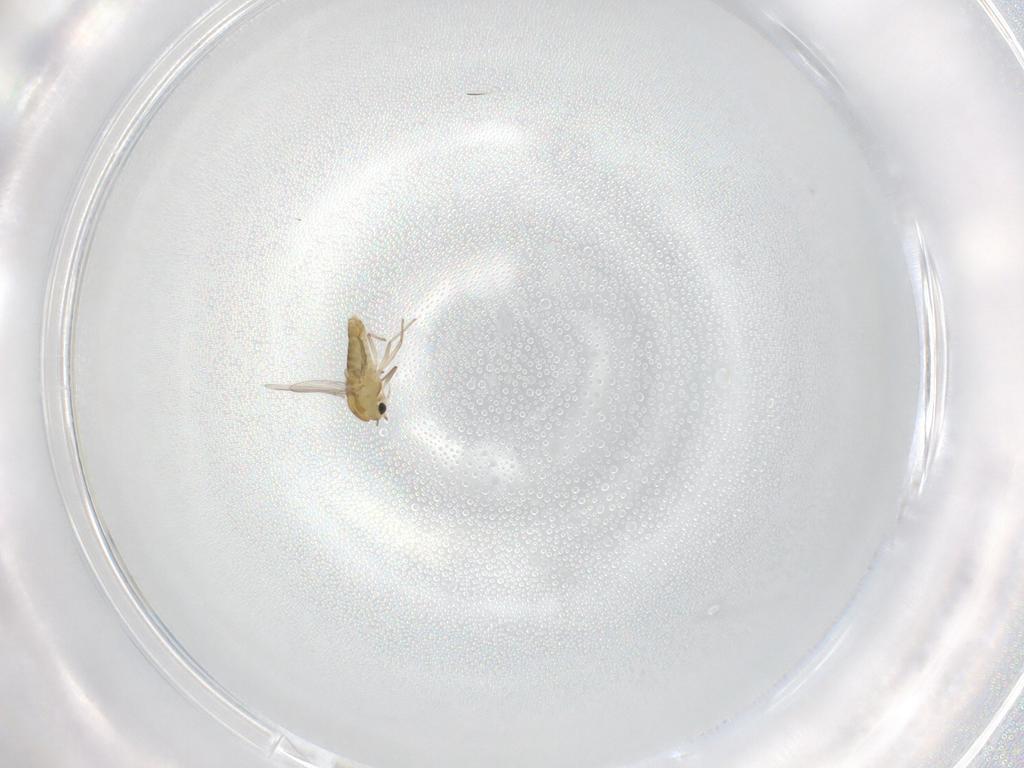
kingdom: Animalia
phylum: Arthropoda
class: Insecta
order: Diptera
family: Chironomidae
